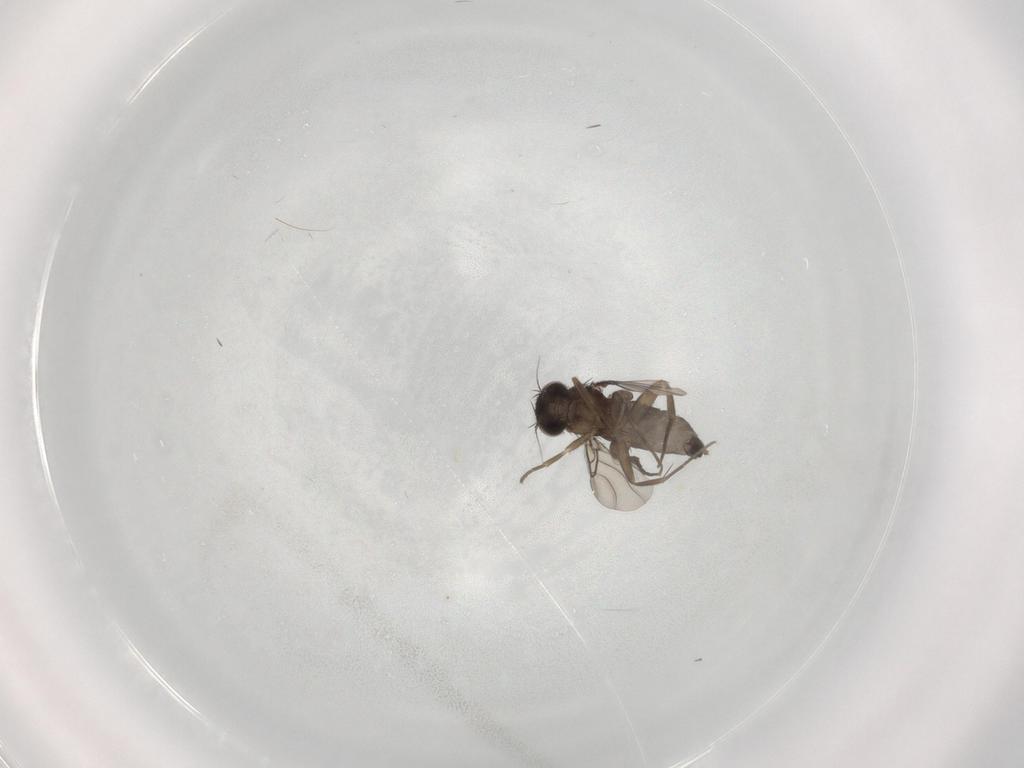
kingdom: Animalia
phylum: Arthropoda
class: Insecta
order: Diptera
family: Phoridae
